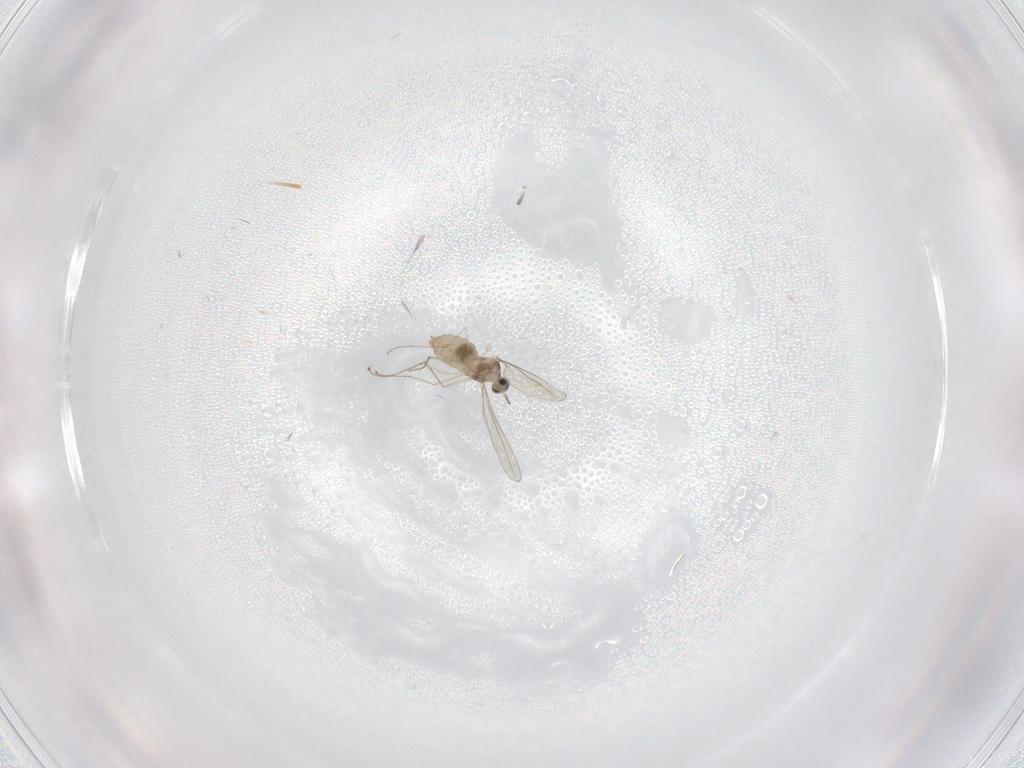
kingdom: Animalia
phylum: Arthropoda
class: Insecta
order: Diptera
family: Cecidomyiidae
